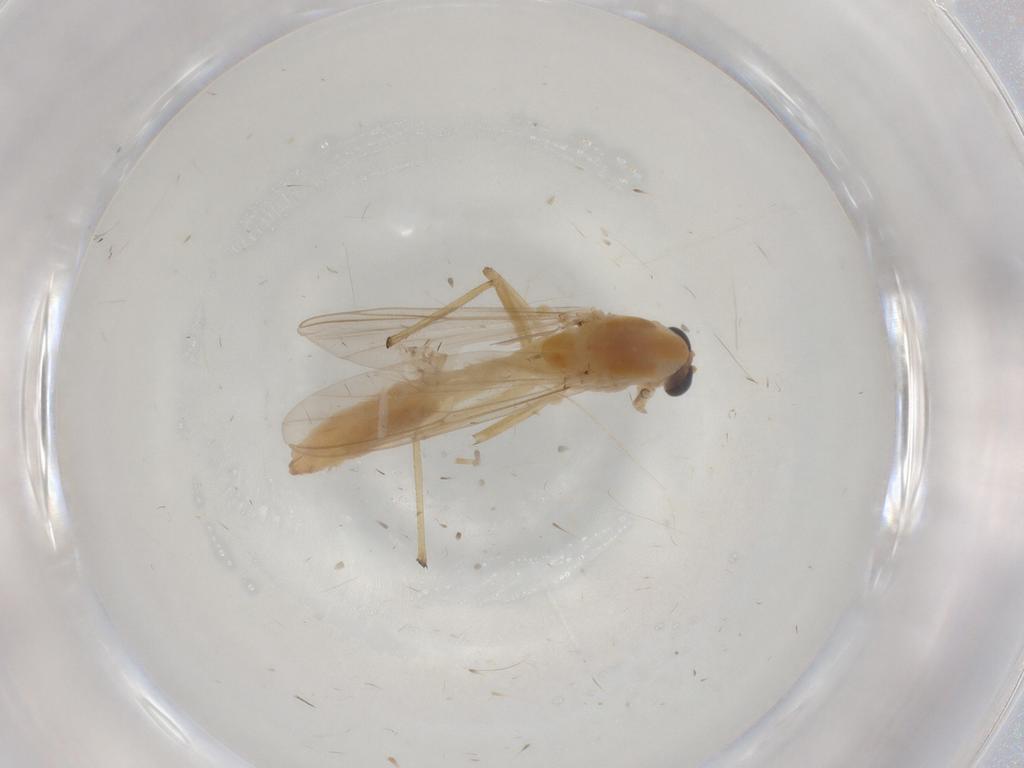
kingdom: Animalia
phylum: Arthropoda
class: Insecta
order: Diptera
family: Chironomidae
